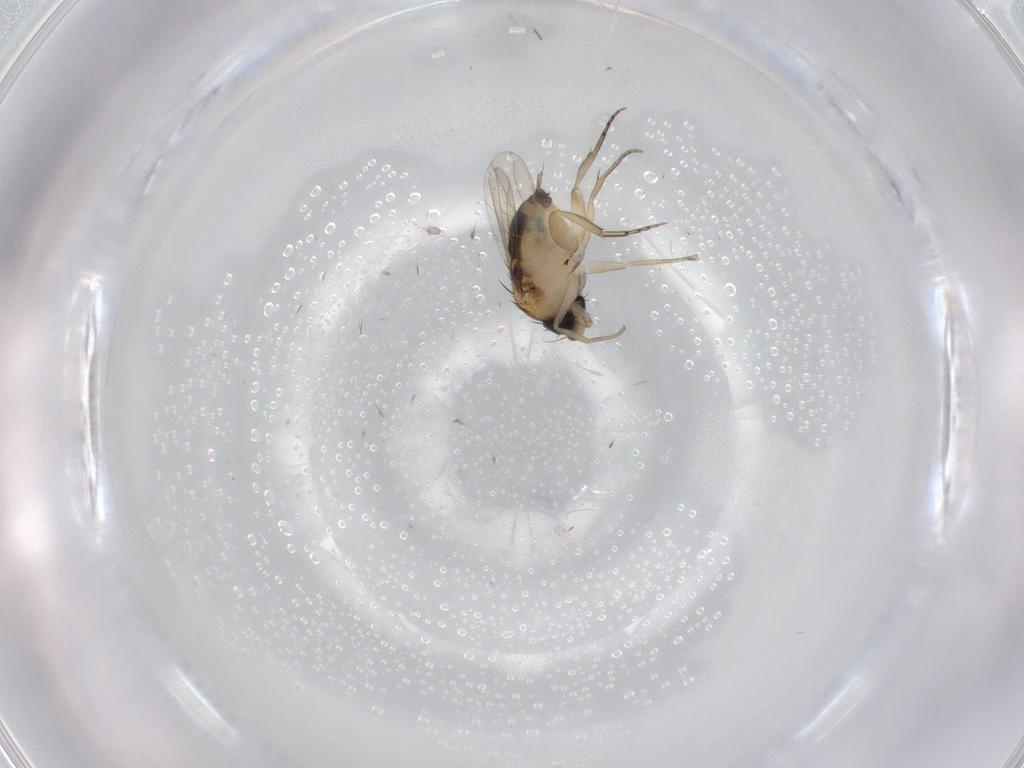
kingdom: Animalia
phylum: Arthropoda
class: Insecta
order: Diptera
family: Phoridae
